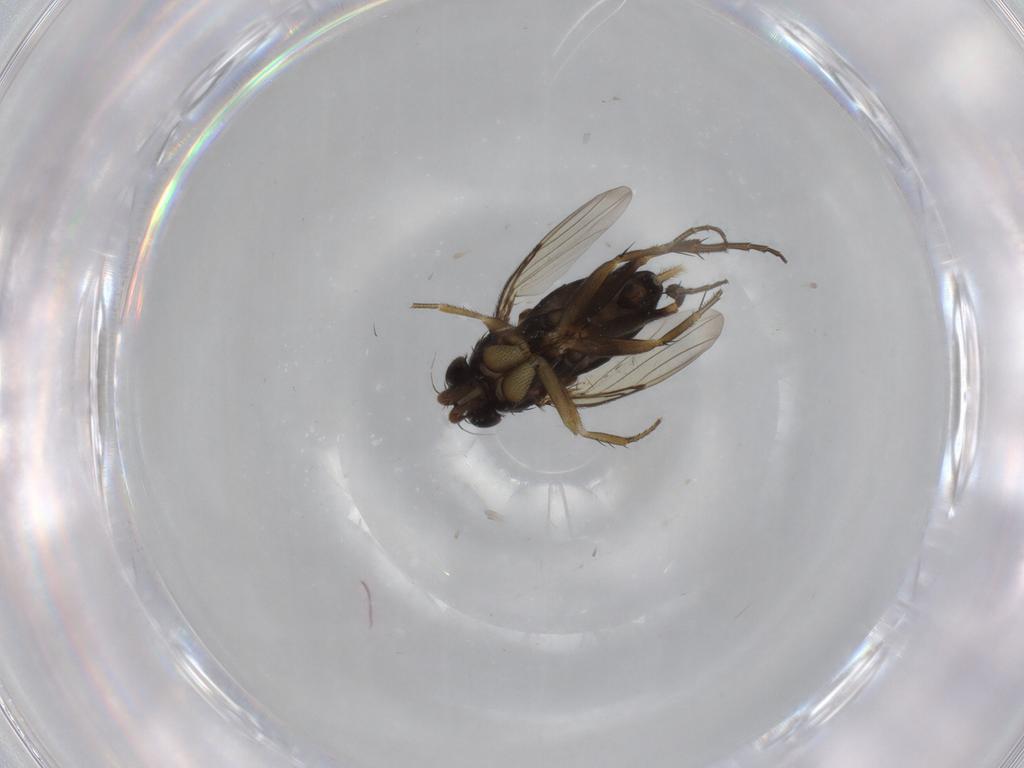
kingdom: Animalia
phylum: Arthropoda
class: Insecta
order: Diptera
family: Phoridae
